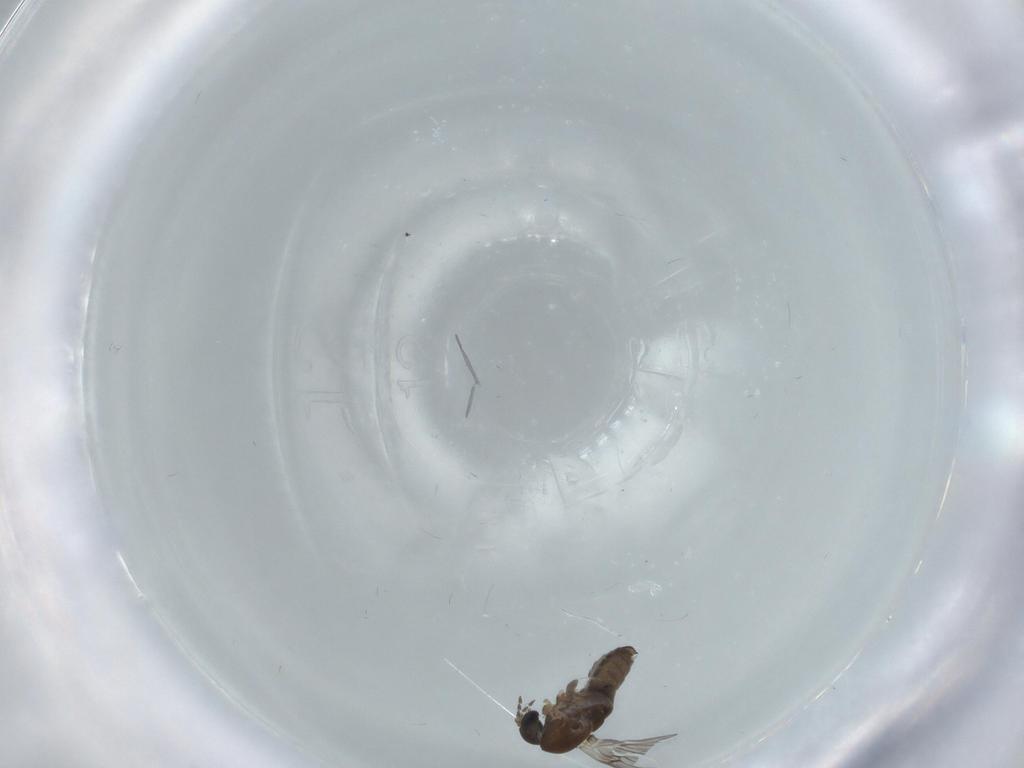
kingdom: Animalia
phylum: Arthropoda
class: Insecta
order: Diptera
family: Psychodidae
